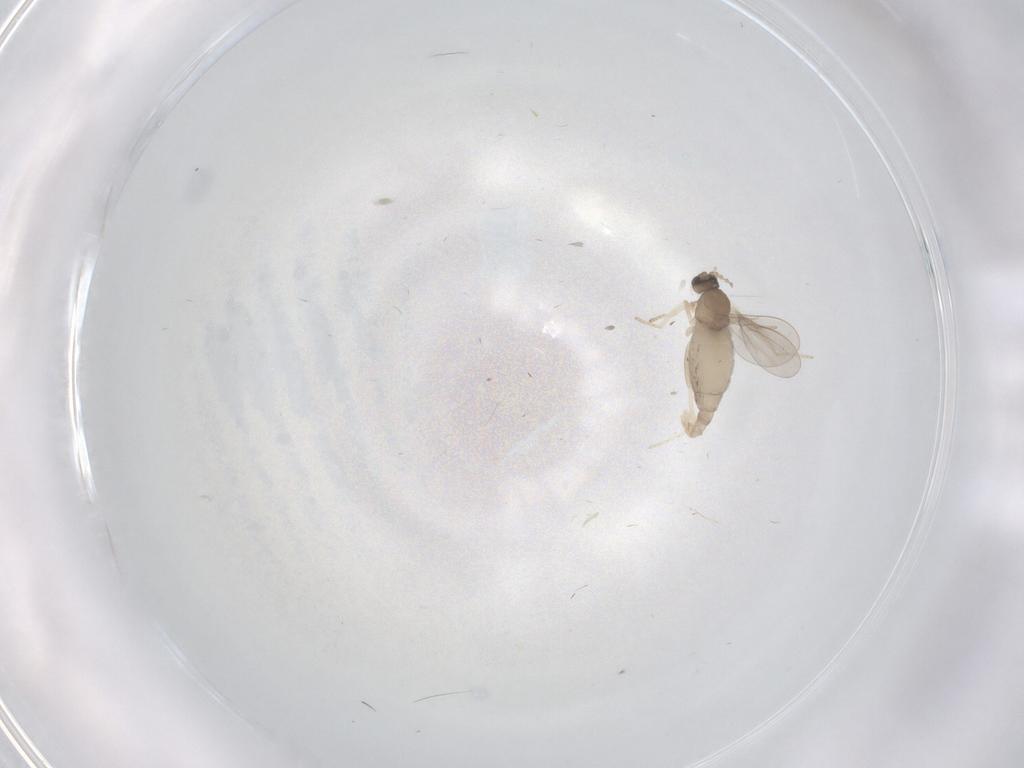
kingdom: Animalia
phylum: Arthropoda
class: Insecta
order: Diptera
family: Cecidomyiidae
